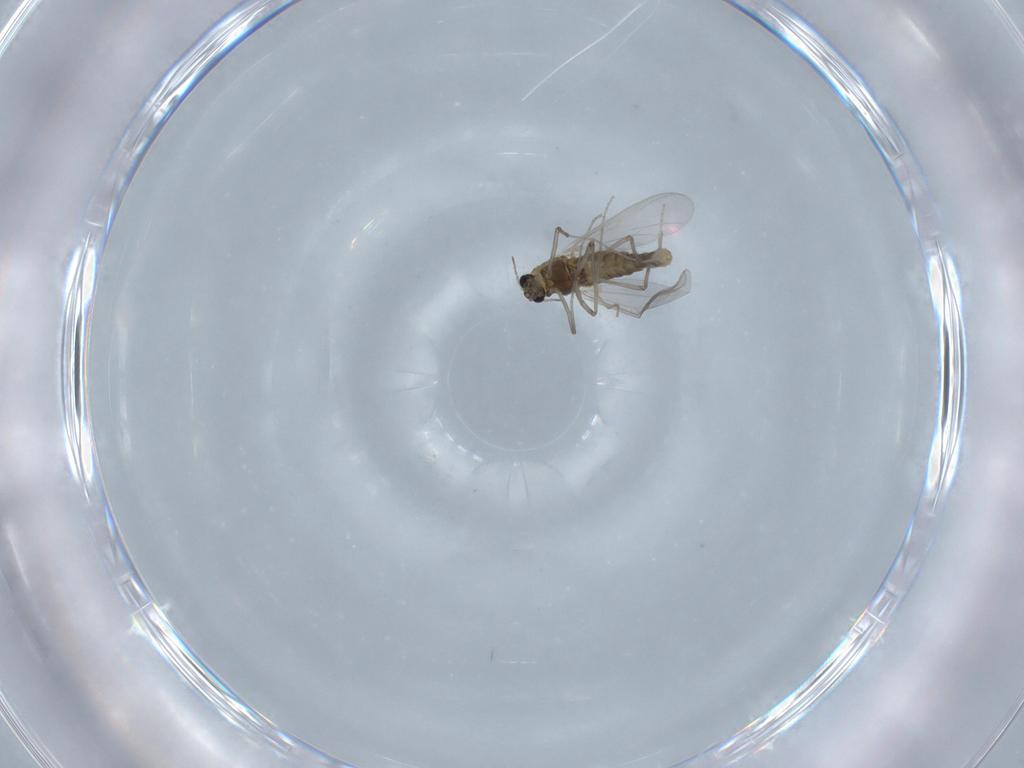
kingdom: Animalia
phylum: Arthropoda
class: Insecta
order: Diptera
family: Chironomidae
